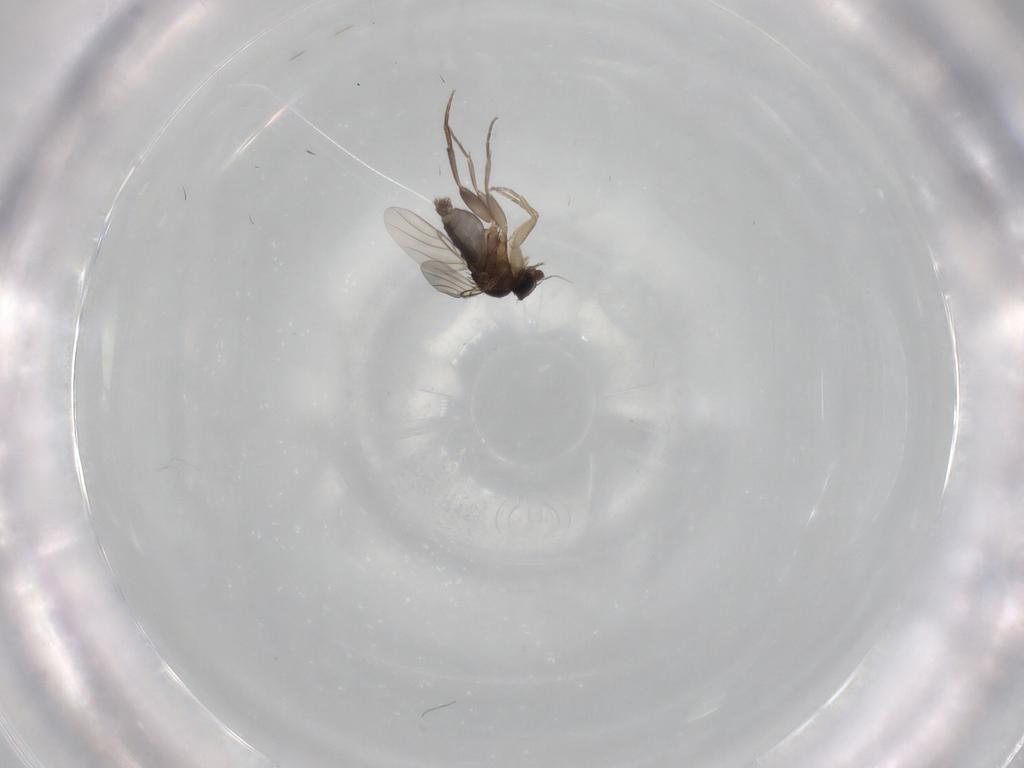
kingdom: Animalia
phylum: Arthropoda
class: Insecta
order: Diptera
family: Phoridae
